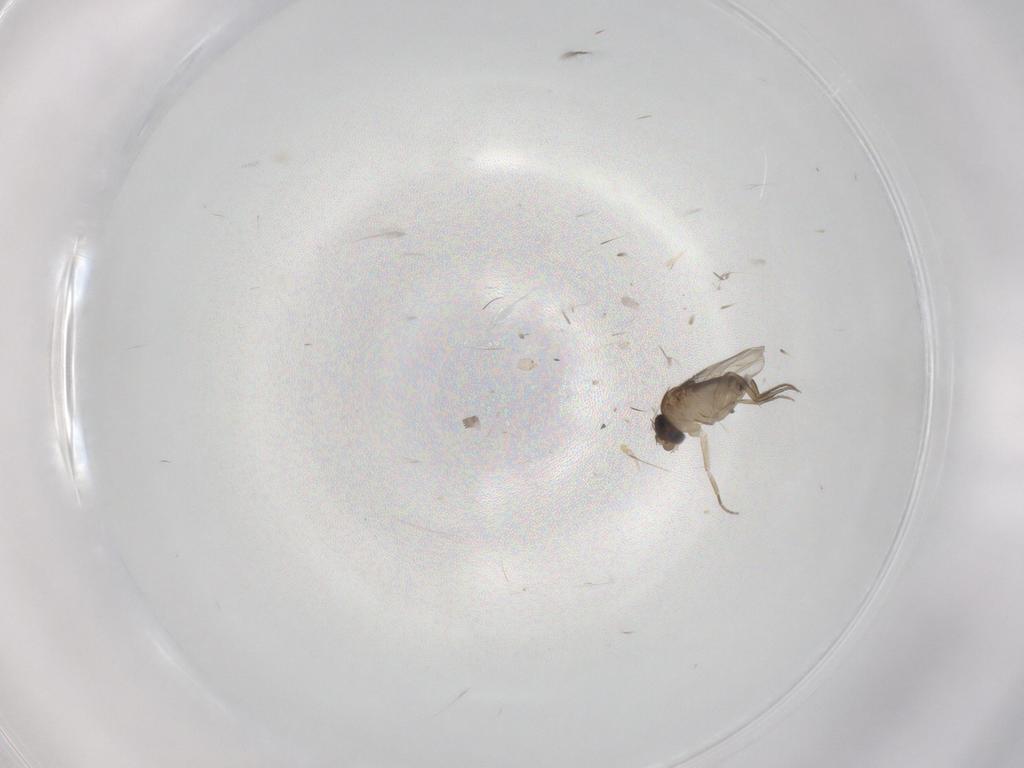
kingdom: Animalia
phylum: Arthropoda
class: Insecta
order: Diptera
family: Phoridae
